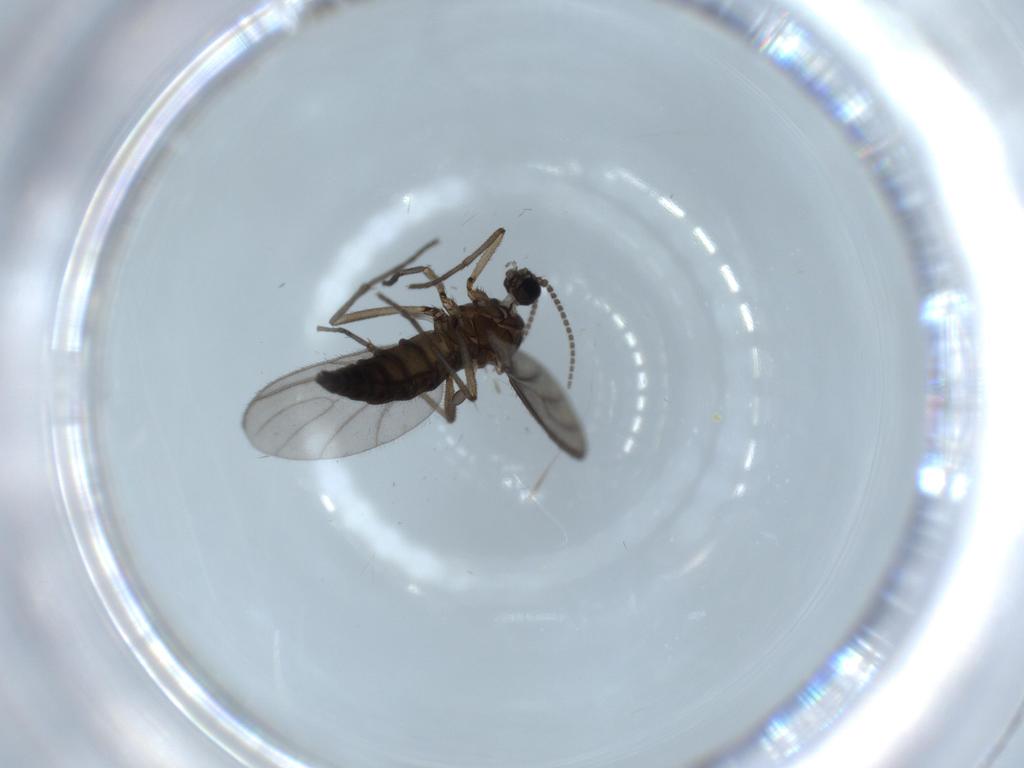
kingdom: Animalia
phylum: Arthropoda
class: Insecta
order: Diptera
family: Sciaridae
